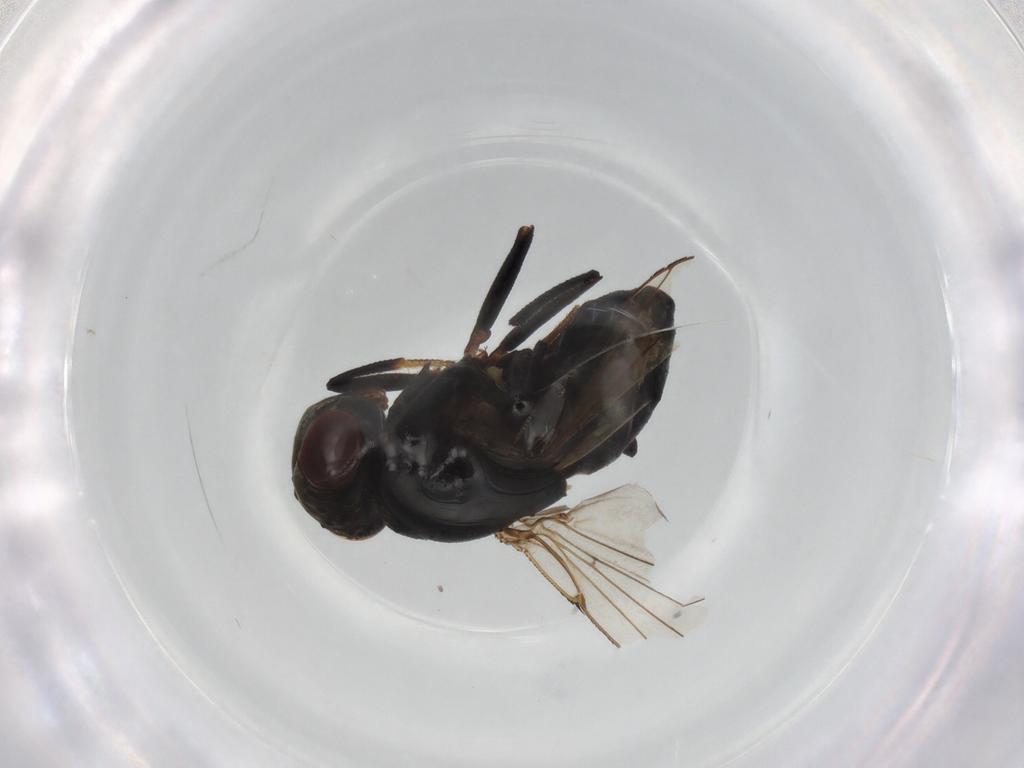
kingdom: Animalia
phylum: Arthropoda
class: Insecta
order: Diptera
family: Ephydridae
